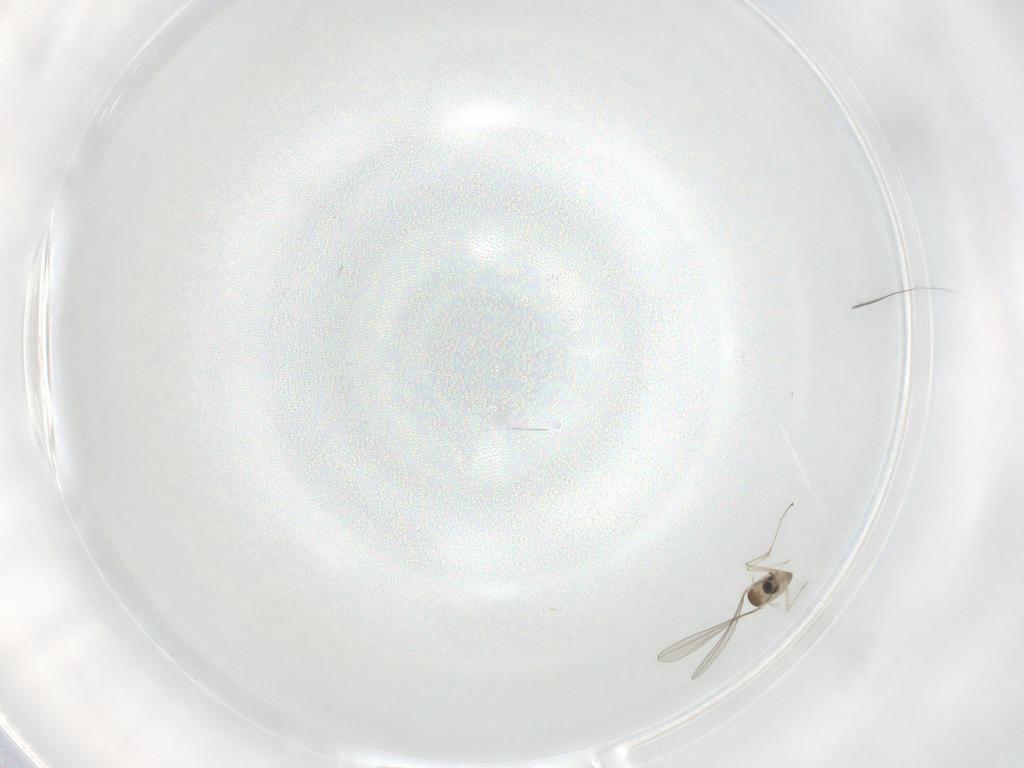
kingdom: Animalia
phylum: Arthropoda
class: Insecta
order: Diptera
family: Cecidomyiidae
